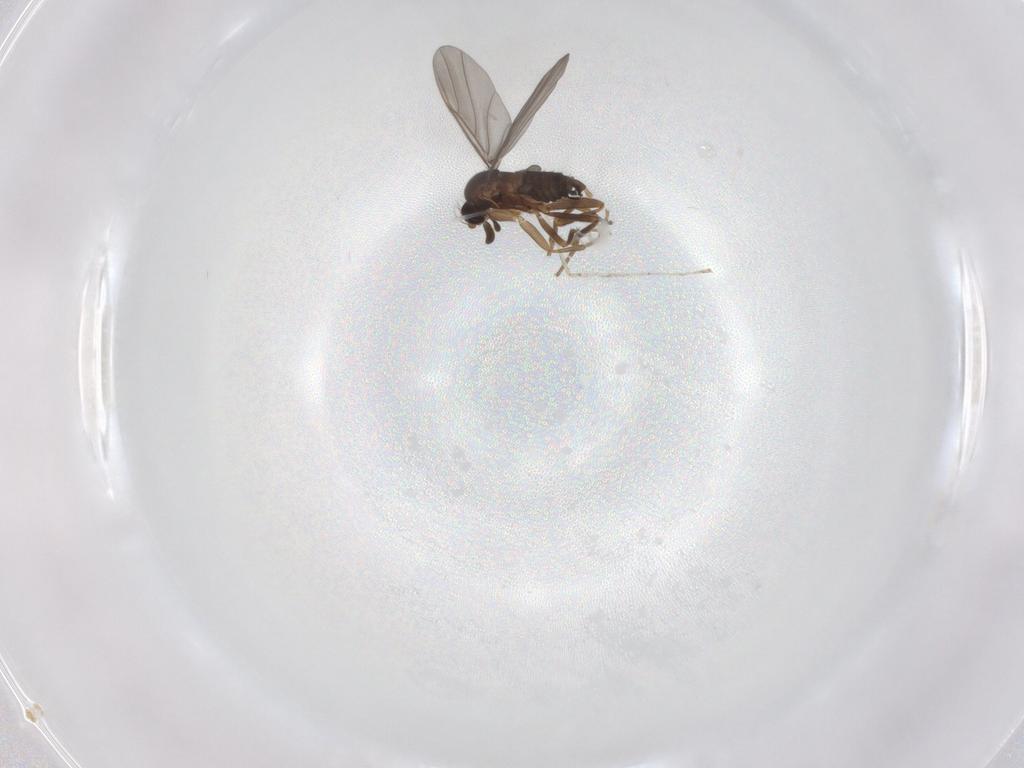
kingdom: Animalia
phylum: Arthropoda
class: Insecta
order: Diptera
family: Cecidomyiidae
